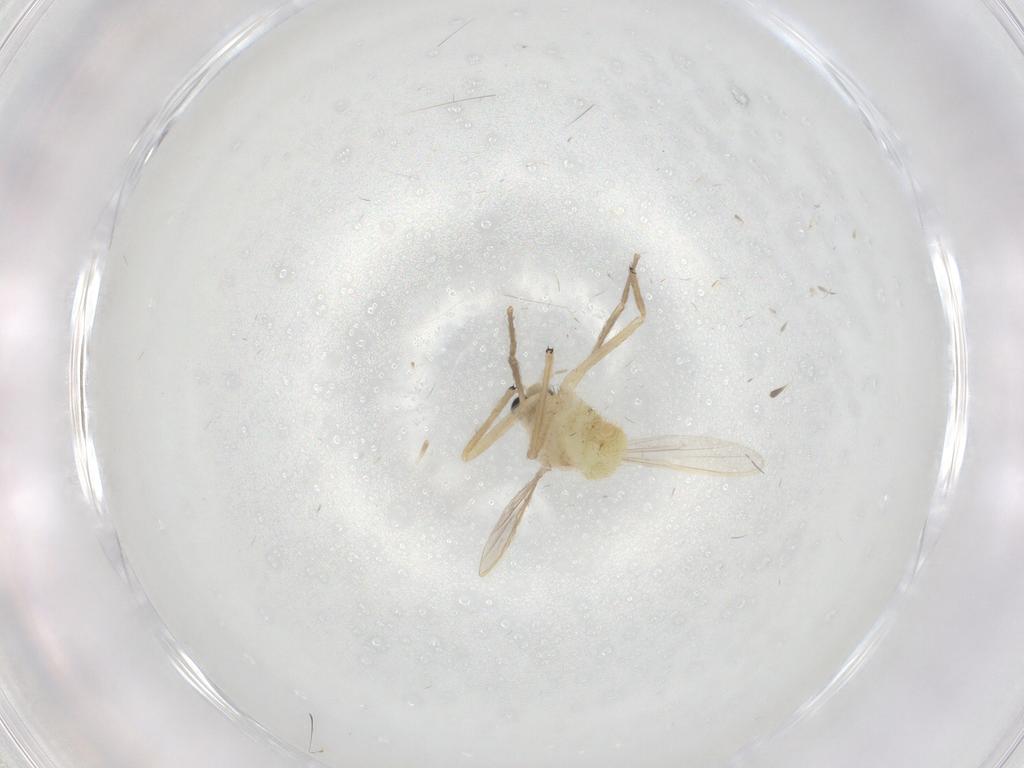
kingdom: Animalia
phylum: Arthropoda
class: Insecta
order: Diptera
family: Chironomidae
